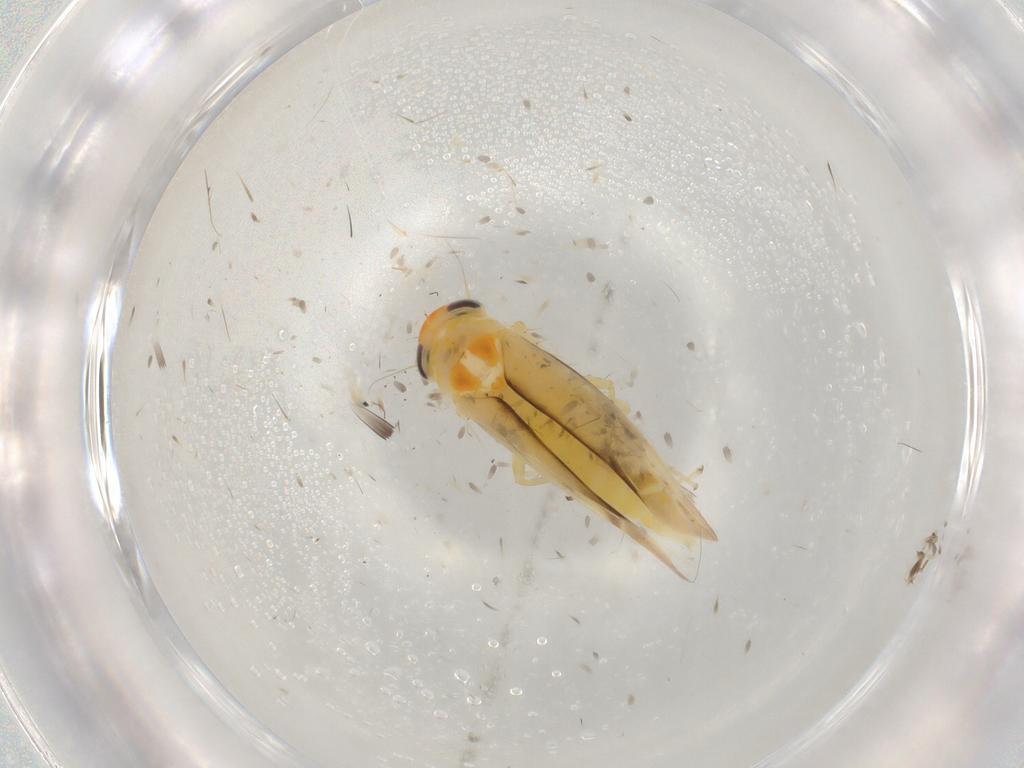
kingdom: Animalia
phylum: Arthropoda
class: Insecta
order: Hemiptera
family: Cicadellidae
